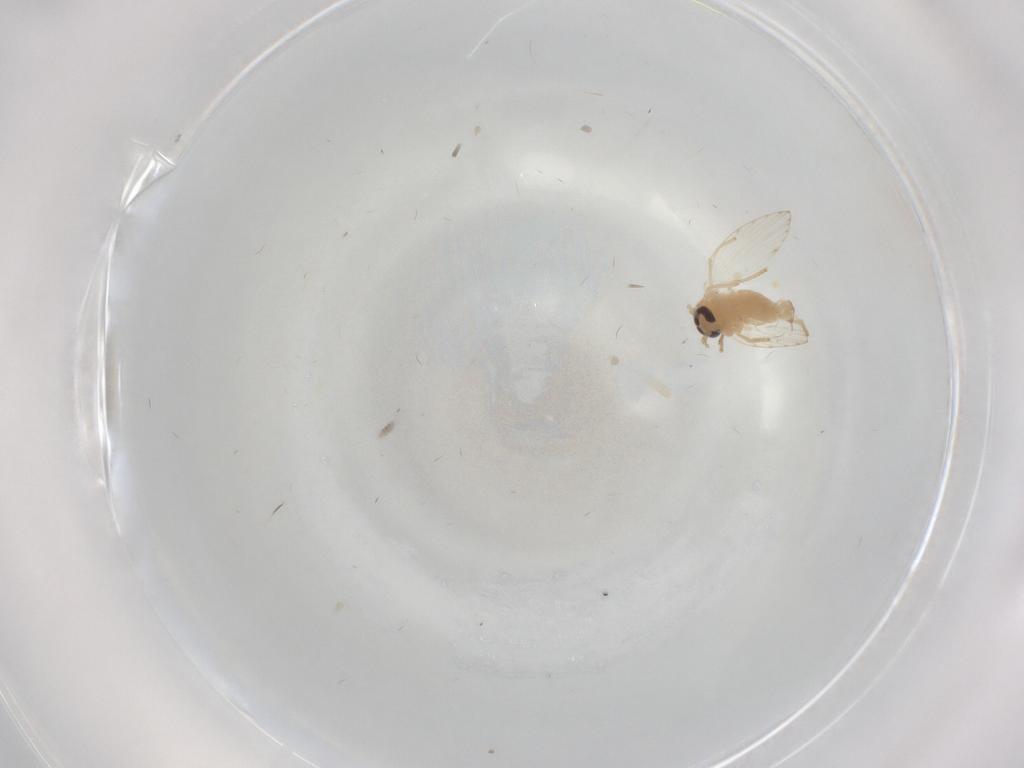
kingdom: Animalia
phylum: Arthropoda
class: Insecta
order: Diptera
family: Psychodidae
